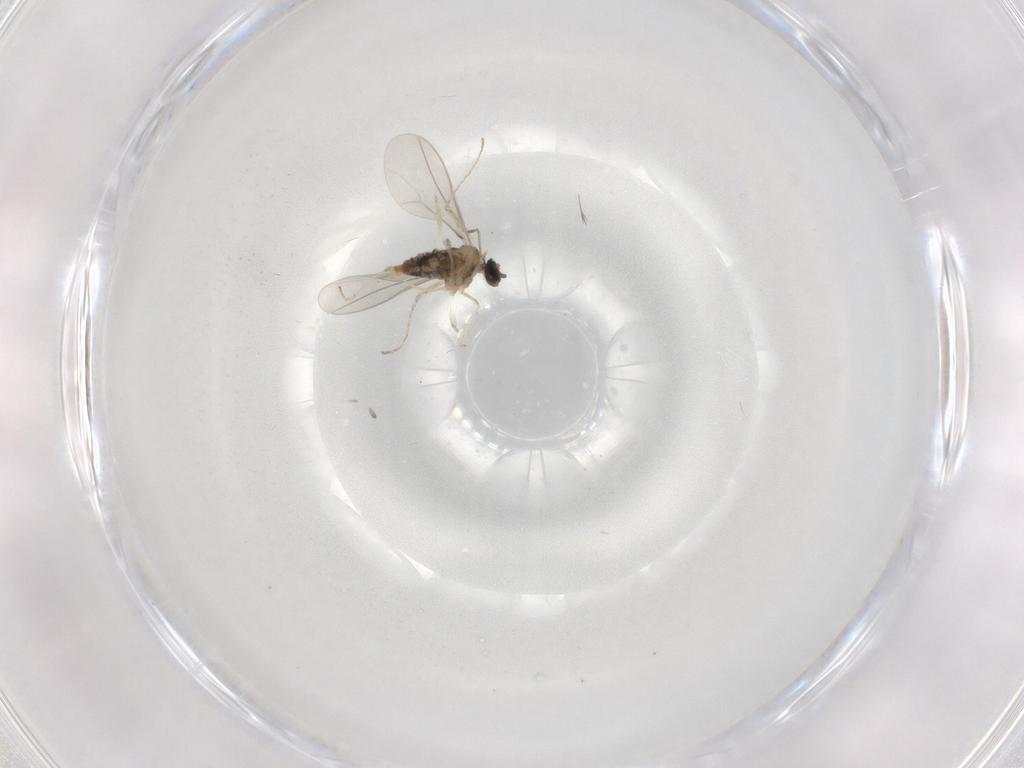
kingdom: Animalia
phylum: Arthropoda
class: Insecta
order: Diptera
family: Cecidomyiidae
